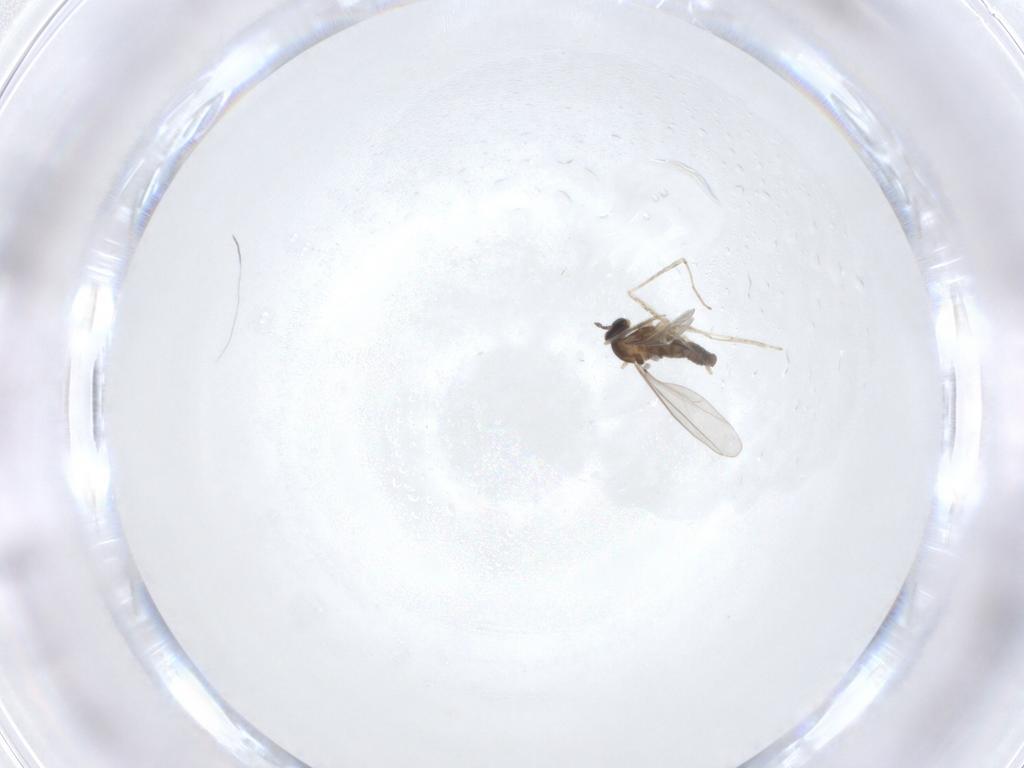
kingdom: Animalia
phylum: Arthropoda
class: Insecta
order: Diptera
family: Cecidomyiidae
